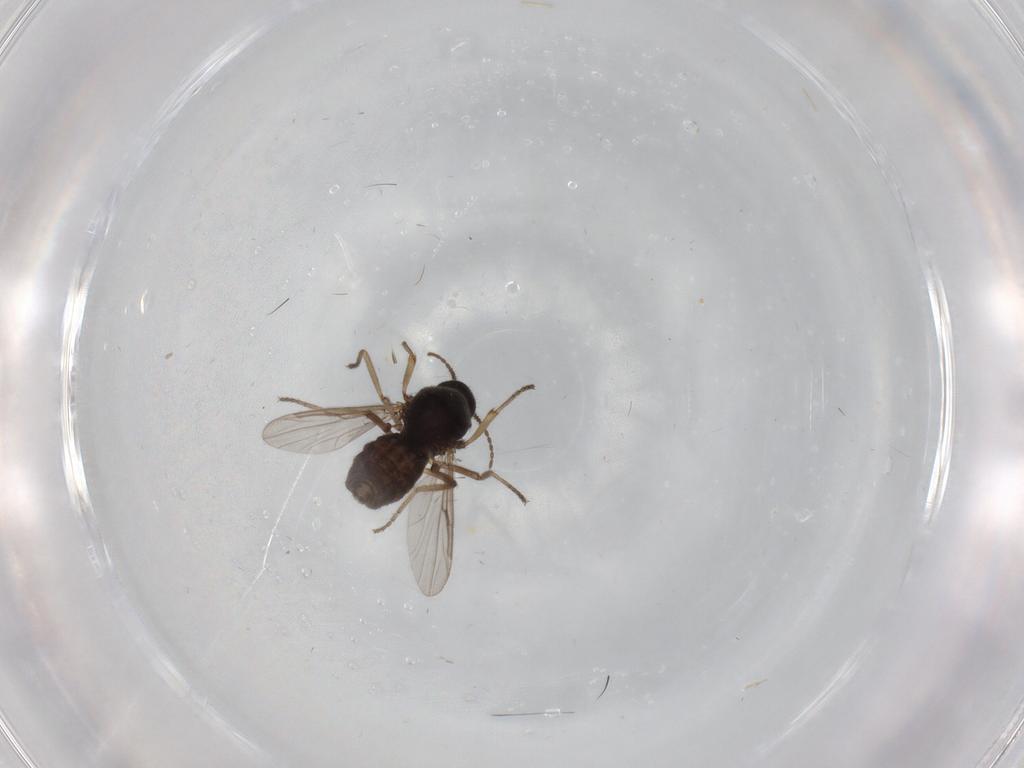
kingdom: Animalia
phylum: Arthropoda
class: Insecta
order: Diptera
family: Ceratopogonidae
